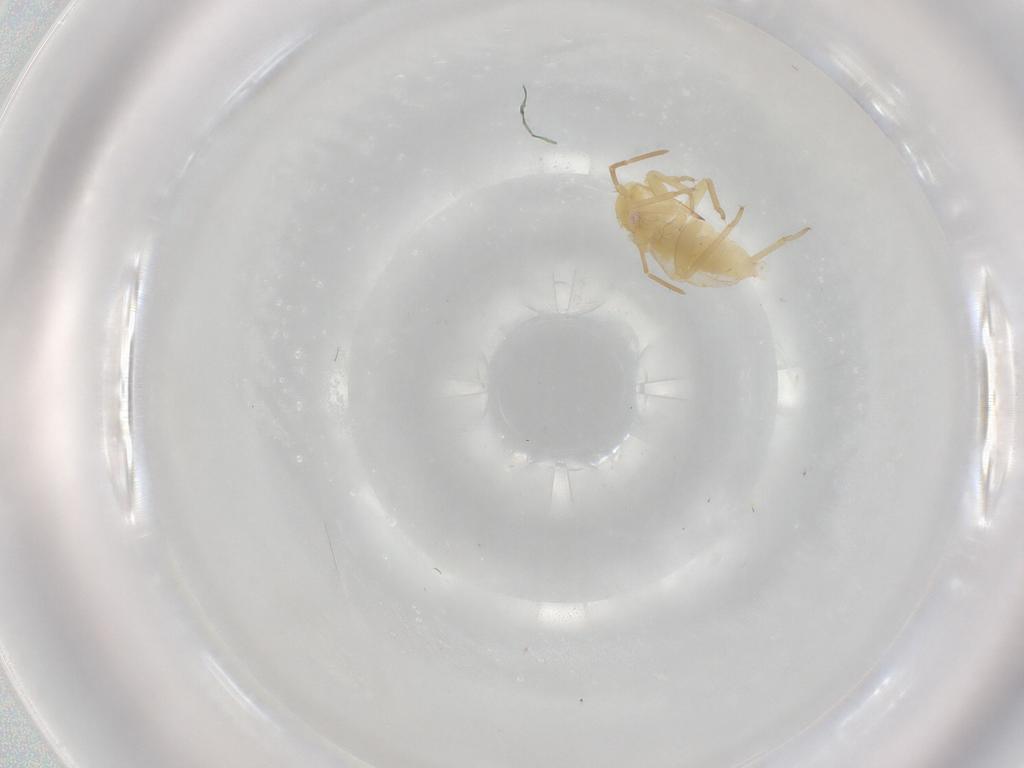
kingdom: Animalia
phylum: Arthropoda
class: Insecta
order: Hemiptera
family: Miridae
